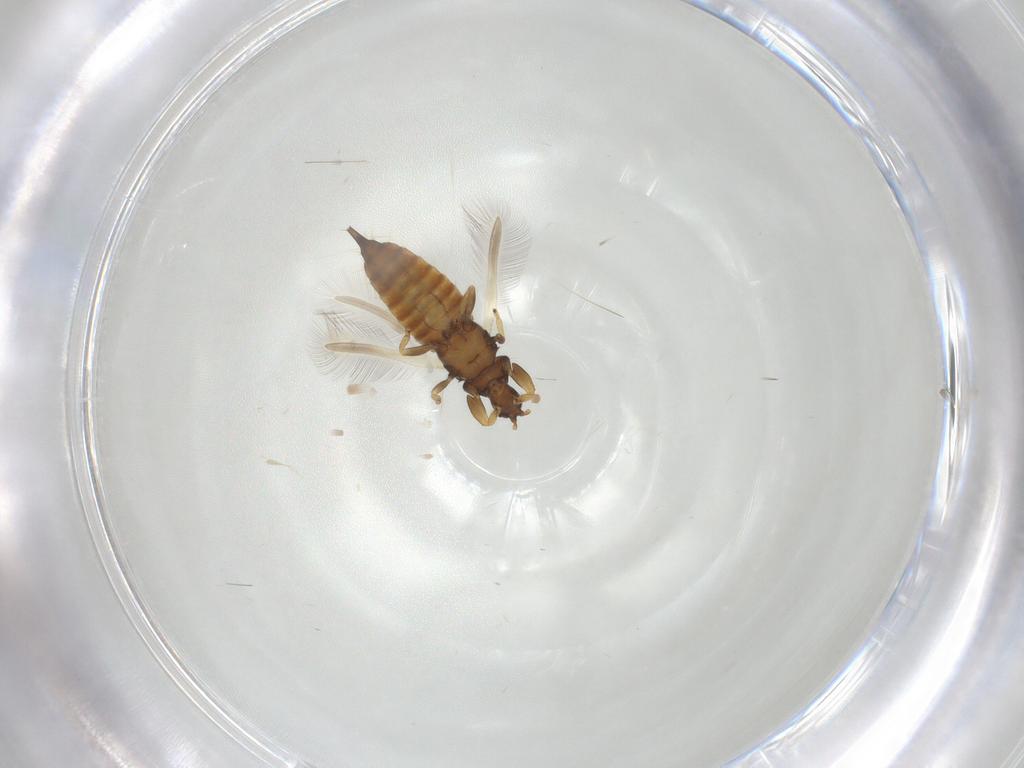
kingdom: Animalia
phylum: Arthropoda
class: Insecta
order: Thysanoptera
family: Phlaeothripidae
